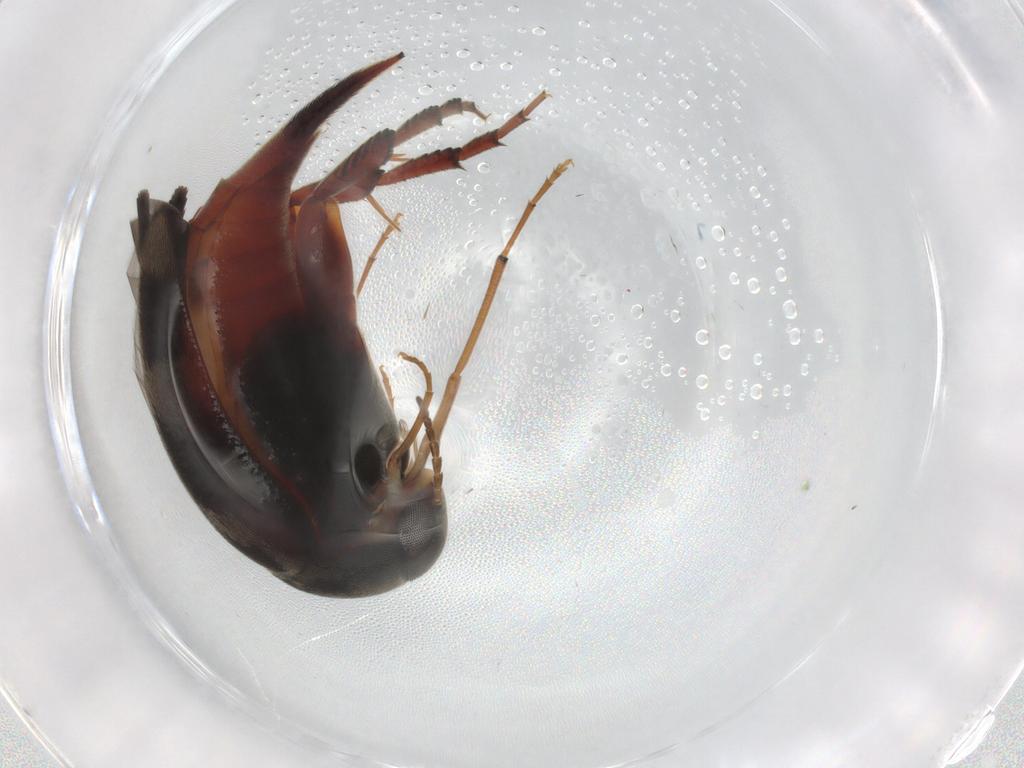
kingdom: Animalia
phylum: Arthropoda
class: Insecta
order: Coleoptera
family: Mordellidae
